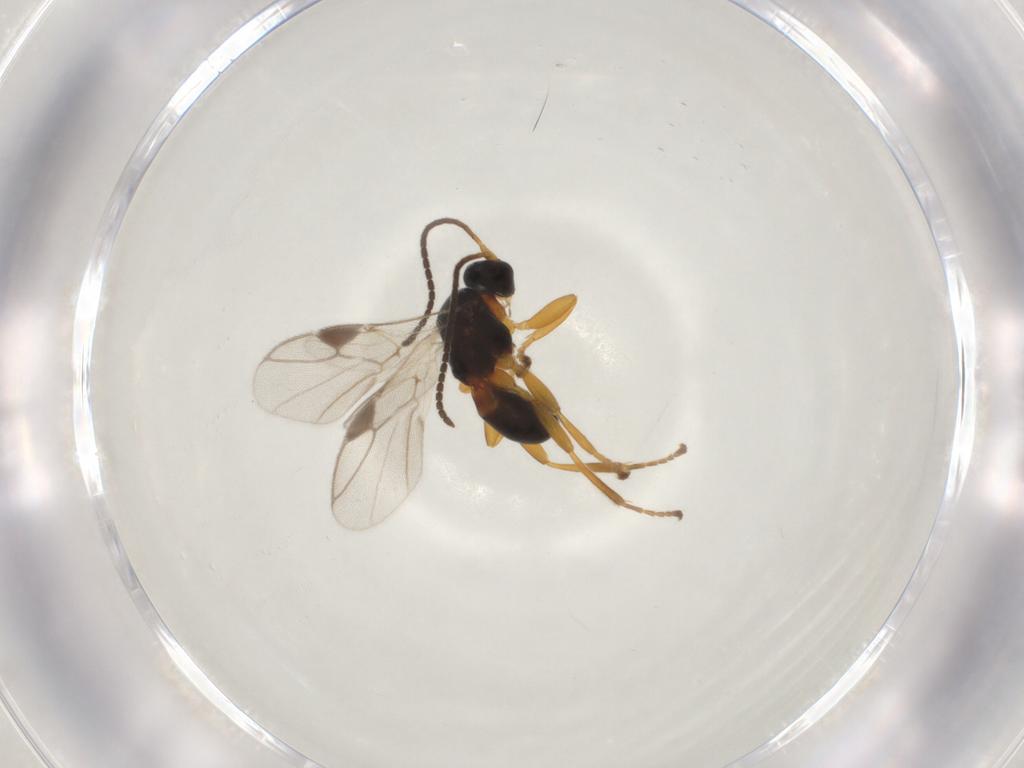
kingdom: Animalia
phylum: Arthropoda
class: Insecta
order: Hymenoptera
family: Braconidae
